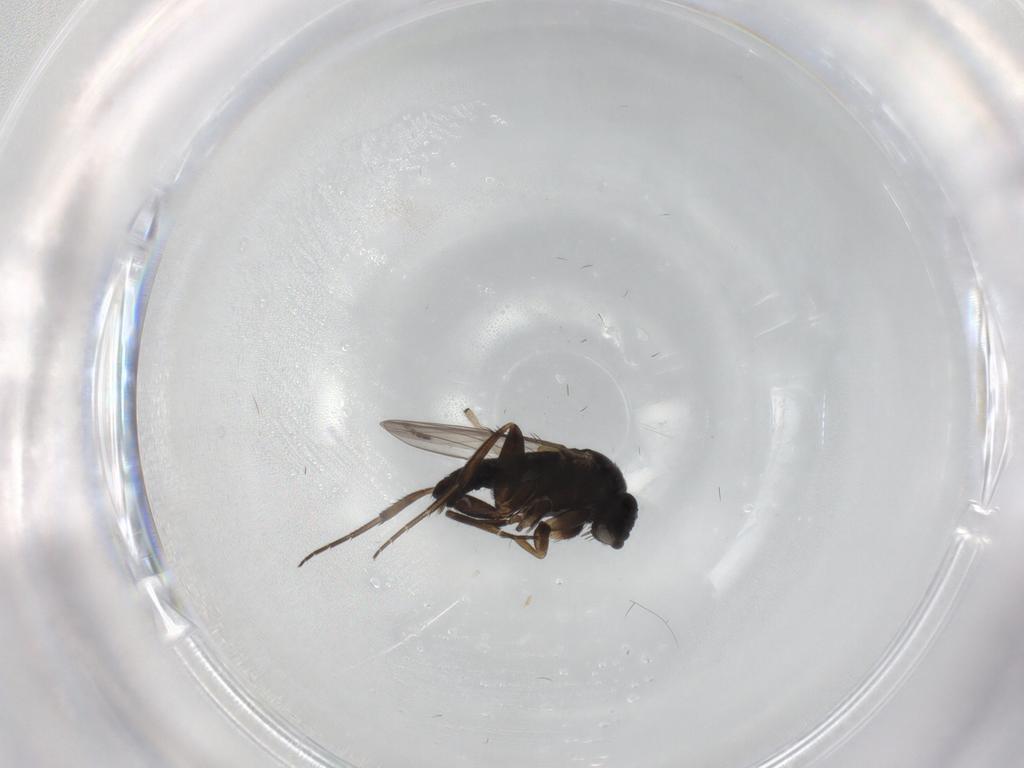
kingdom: Animalia
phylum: Arthropoda
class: Insecta
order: Diptera
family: Phoridae
